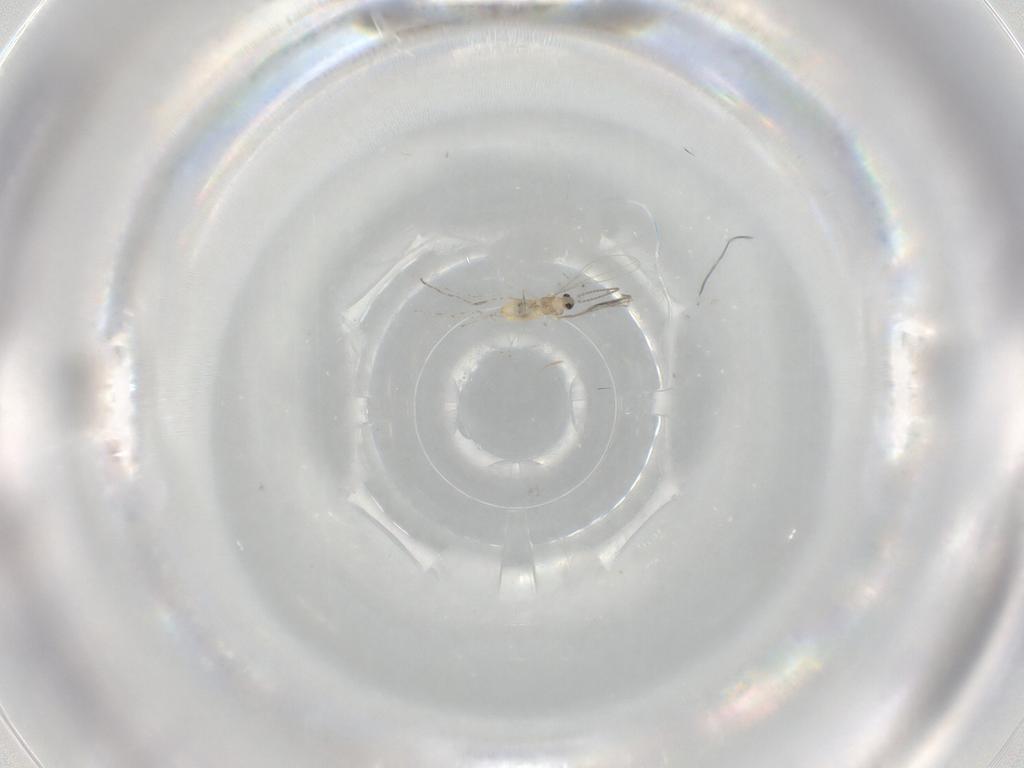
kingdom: Animalia
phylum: Arthropoda
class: Insecta
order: Diptera
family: Cecidomyiidae
